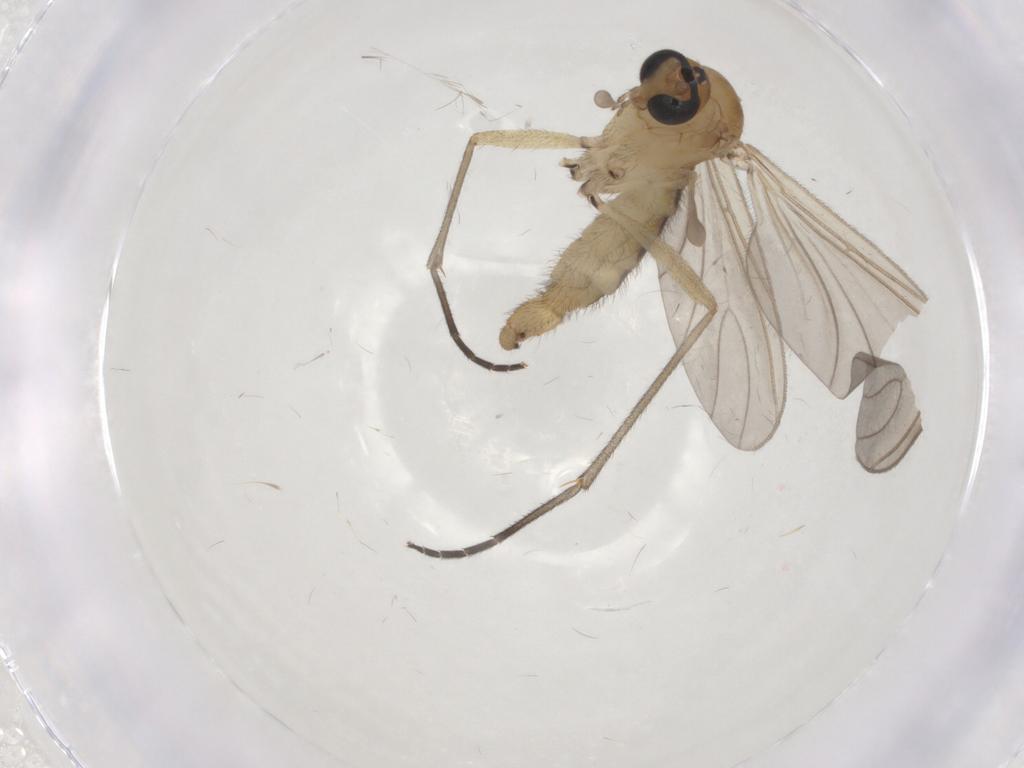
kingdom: Animalia
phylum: Arthropoda
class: Insecta
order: Diptera
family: Sciaridae
